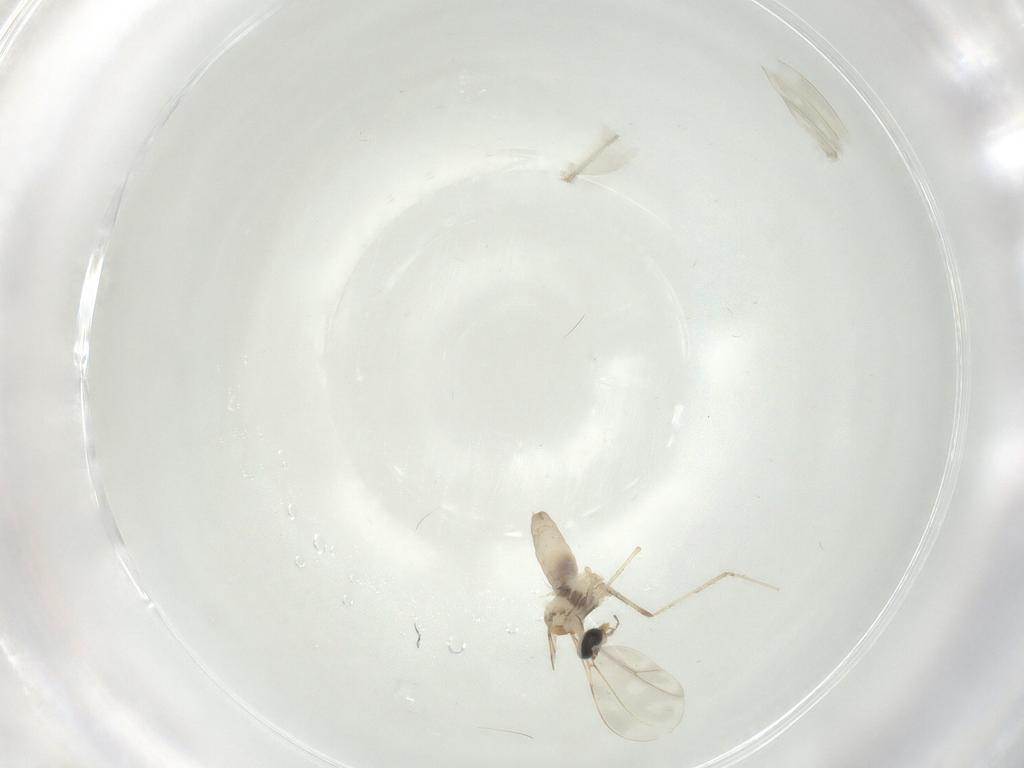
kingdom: Animalia
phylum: Arthropoda
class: Insecta
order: Diptera
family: Cecidomyiidae
